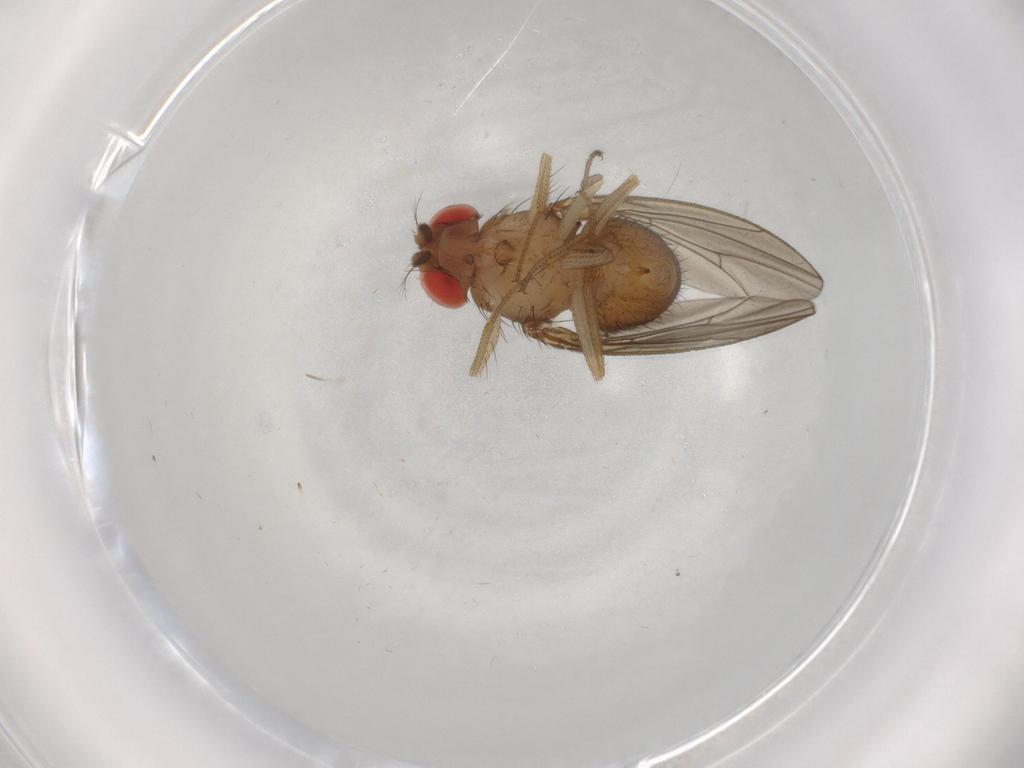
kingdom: Animalia
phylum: Arthropoda
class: Insecta
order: Diptera
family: Drosophilidae
